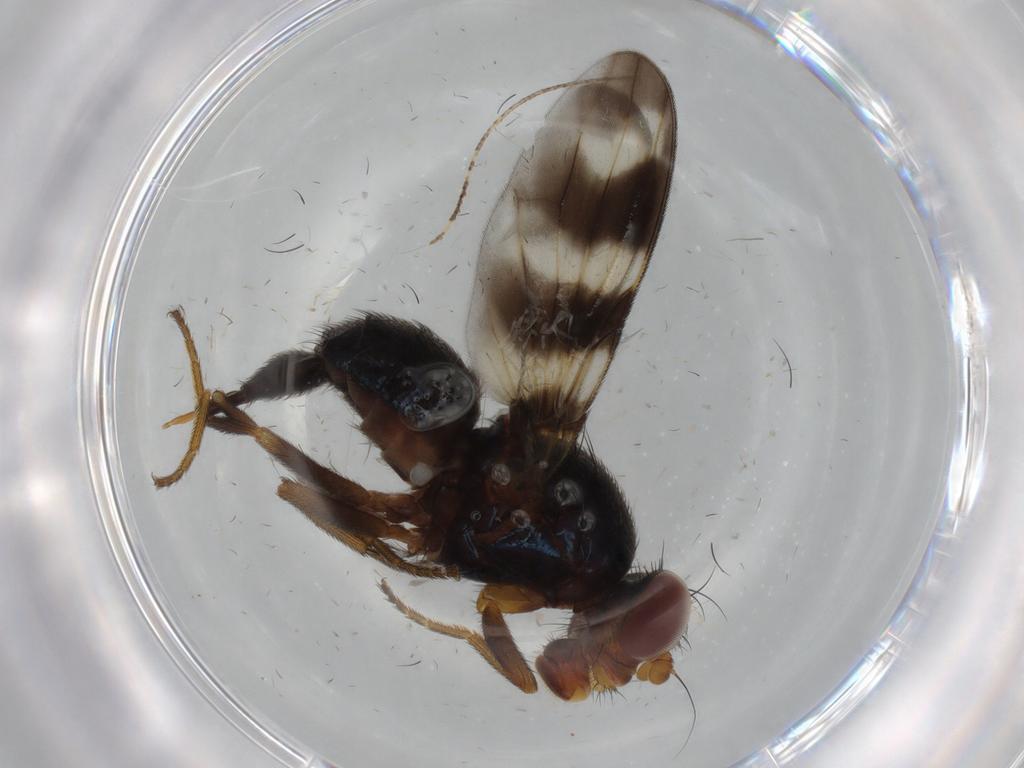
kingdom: Animalia
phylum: Arthropoda
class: Insecta
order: Diptera
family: Ulidiidae
